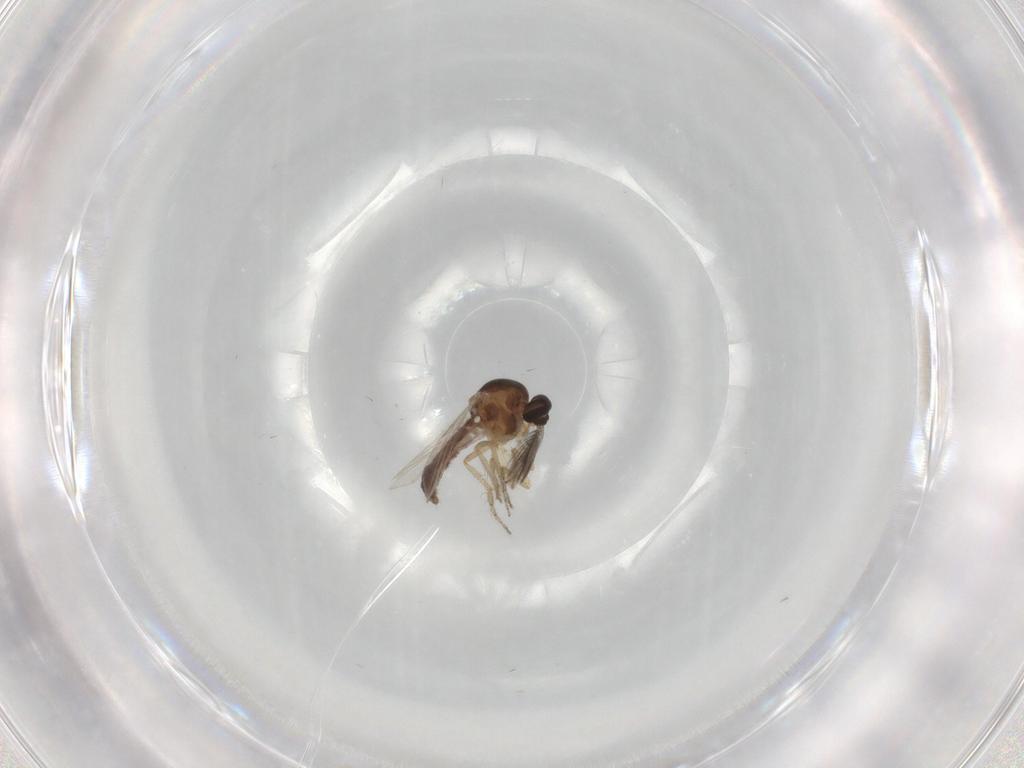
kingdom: Animalia
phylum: Arthropoda
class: Insecta
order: Diptera
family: Ceratopogonidae
